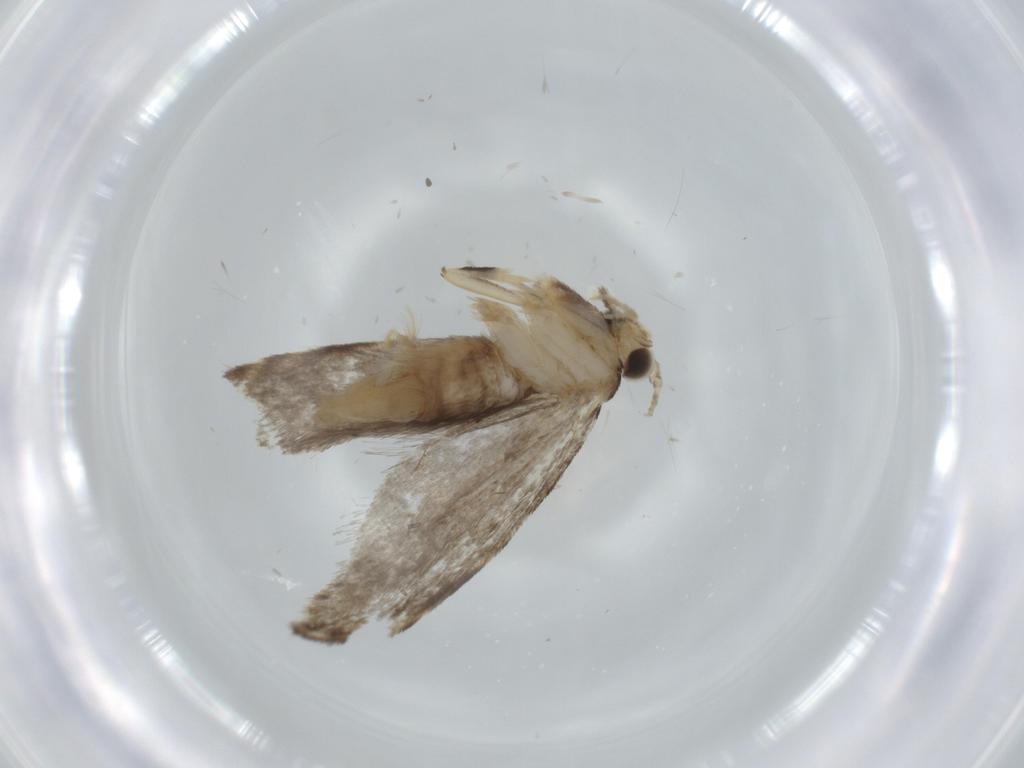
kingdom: Animalia
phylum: Arthropoda
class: Insecta
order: Lepidoptera
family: Tineidae
